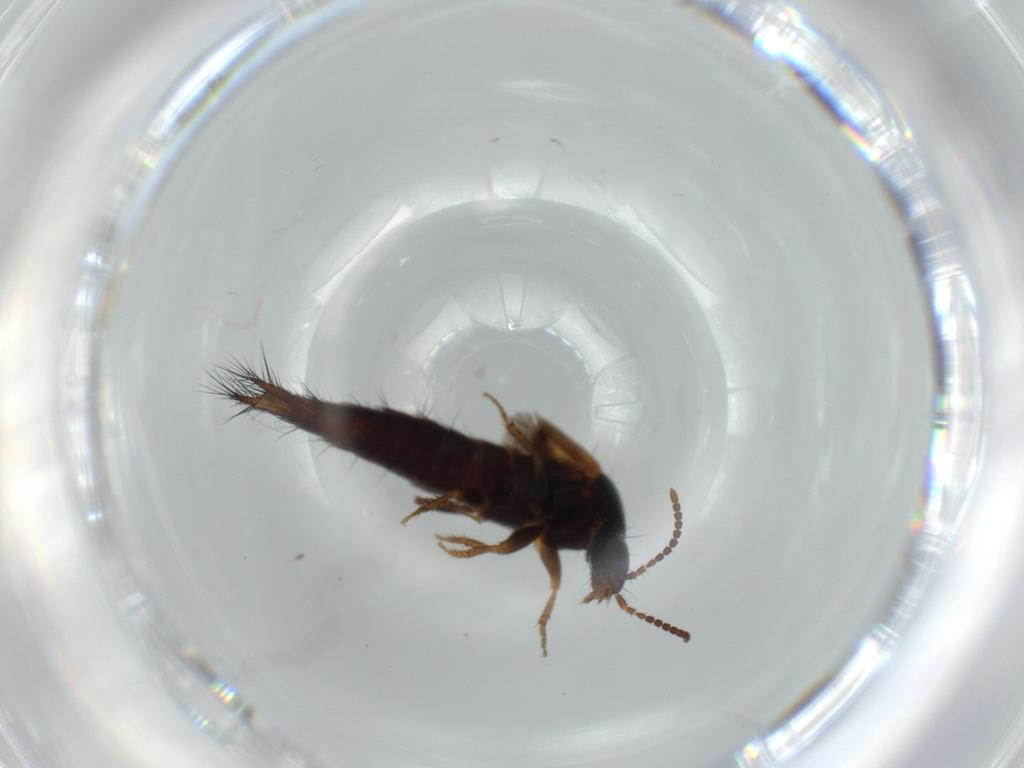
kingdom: Animalia
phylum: Arthropoda
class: Insecta
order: Coleoptera
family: Staphylinidae
